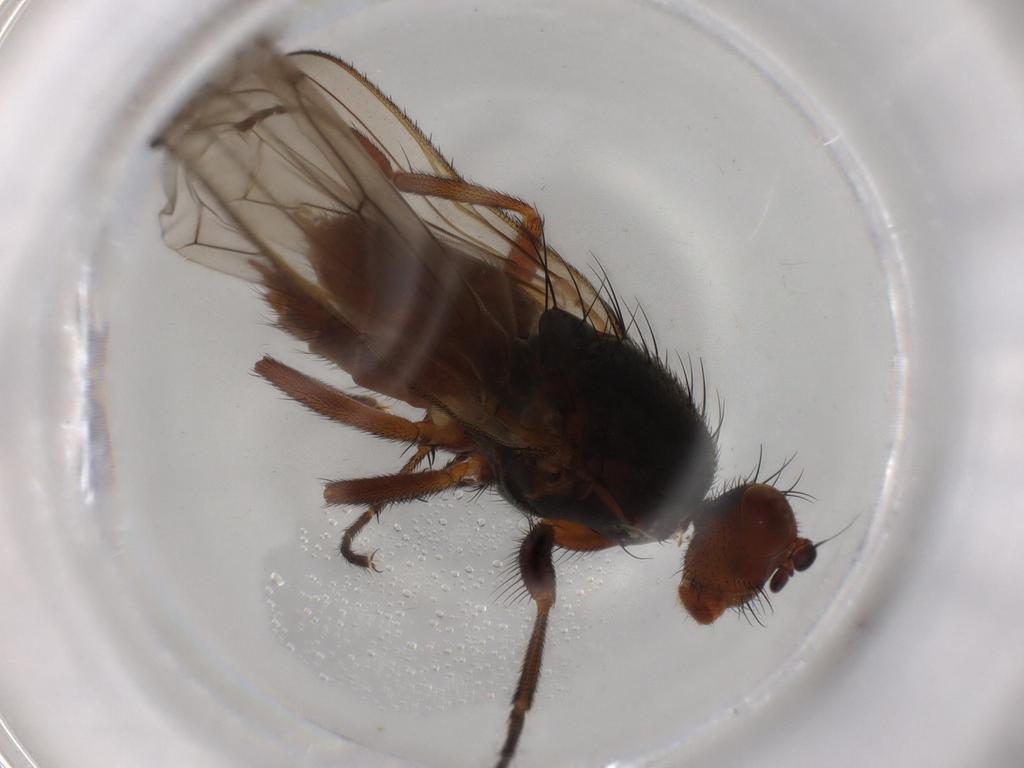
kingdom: Animalia
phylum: Arthropoda
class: Insecta
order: Diptera
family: Heleomyzidae
